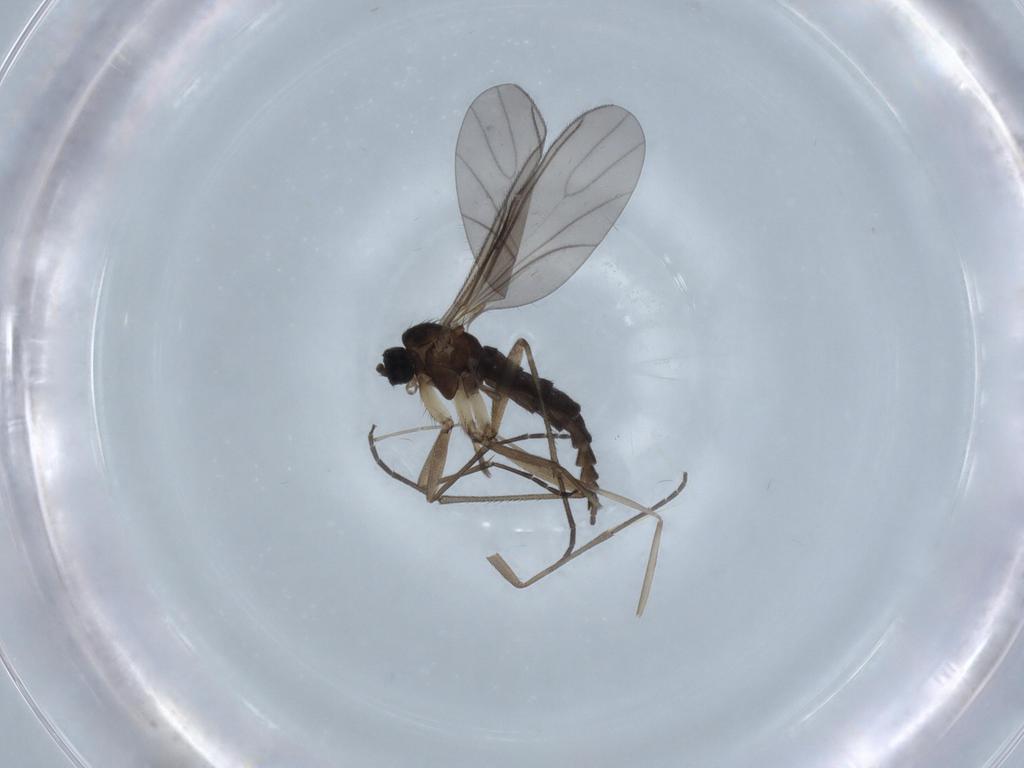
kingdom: Animalia
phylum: Arthropoda
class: Insecta
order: Diptera
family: Sciaridae
